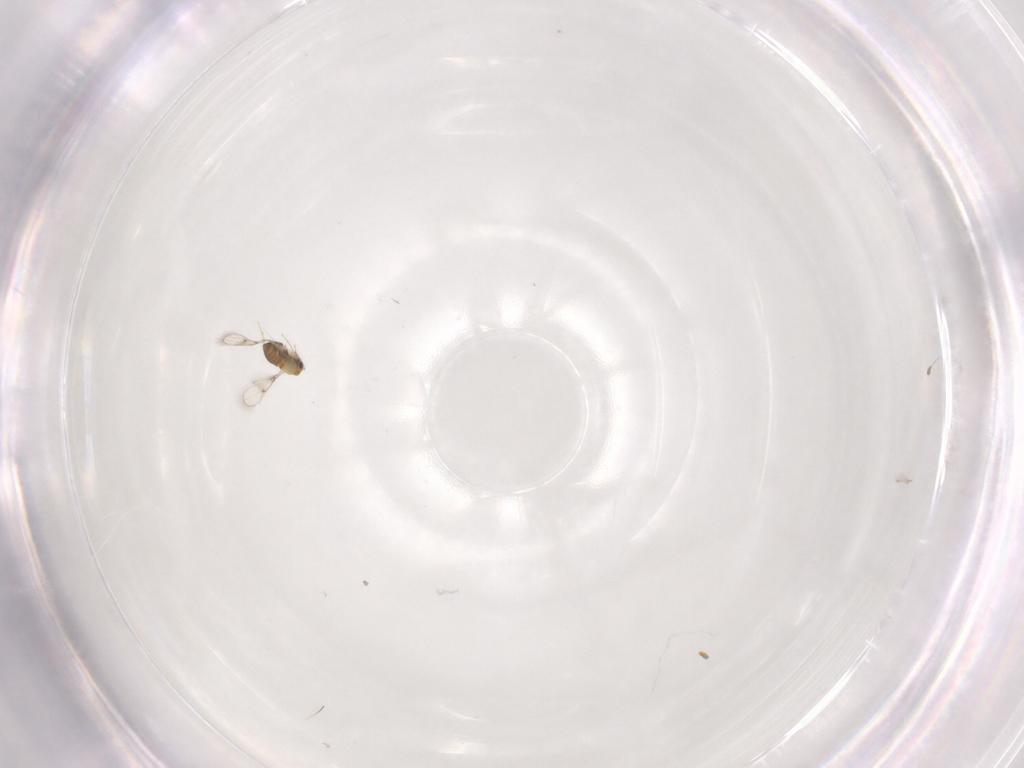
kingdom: Animalia
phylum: Arthropoda
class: Insecta
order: Hymenoptera
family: Trichogrammatidae
